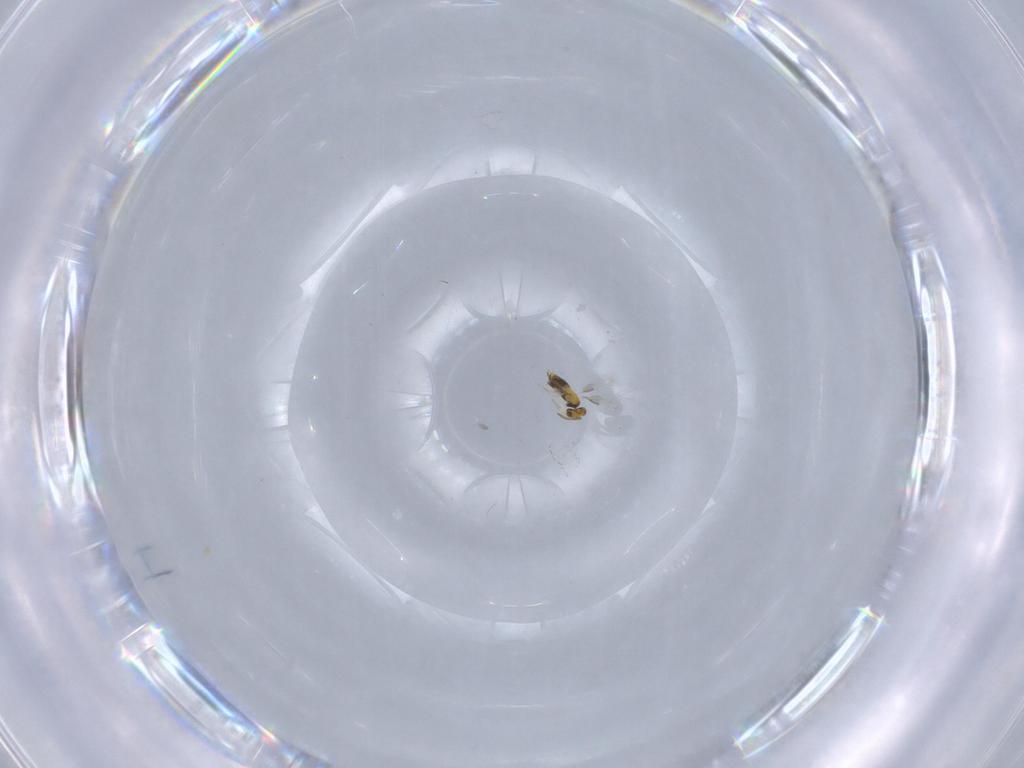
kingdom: Animalia
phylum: Arthropoda
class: Insecta
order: Hymenoptera
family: Aphelinidae
